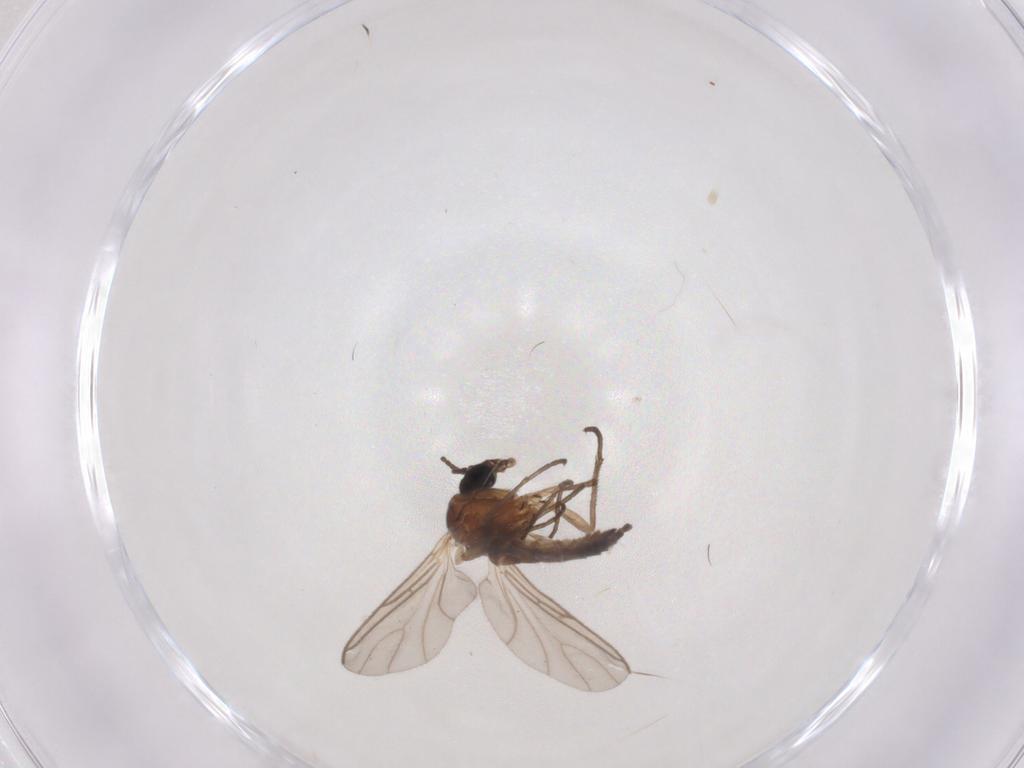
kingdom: Animalia
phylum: Arthropoda
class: Insecta
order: Diptera
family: Sciaridae
